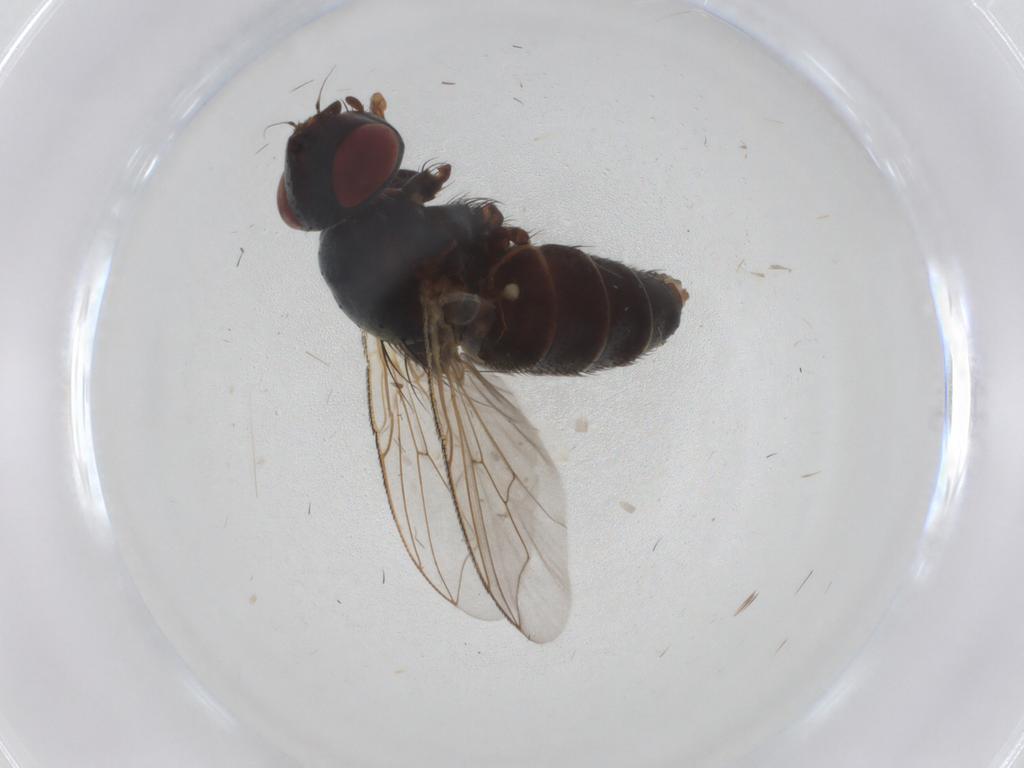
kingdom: Animalia
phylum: Arthropoda
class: Insecta
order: Diptera
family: Sarcophagidae
